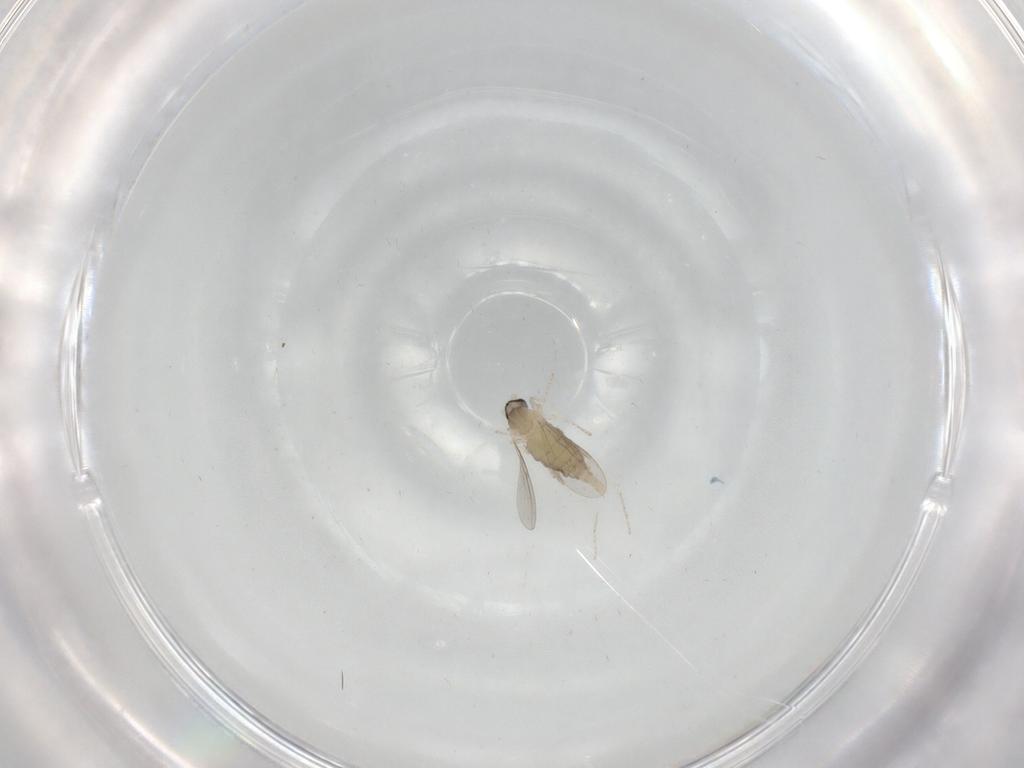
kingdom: Animalia
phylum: Arthropoda
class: Insecta
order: Diptera
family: Cecidomyiidae
